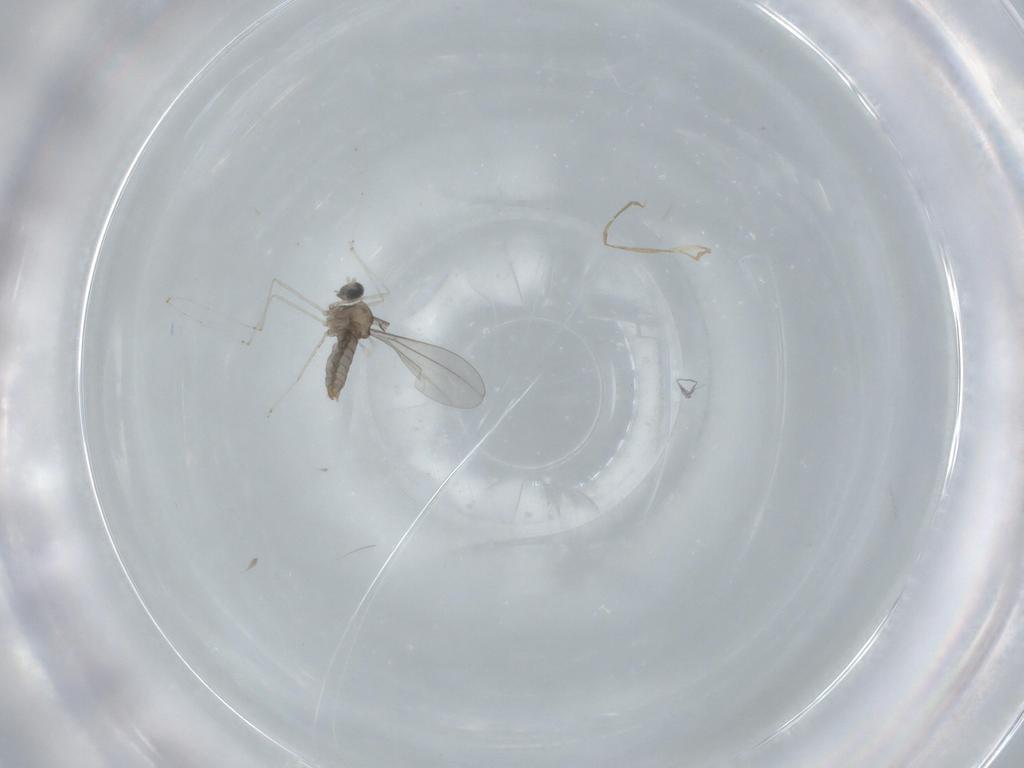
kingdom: Animalia
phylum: Arthropoda
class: Insecta
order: Diptera
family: Cecidomyiidae
